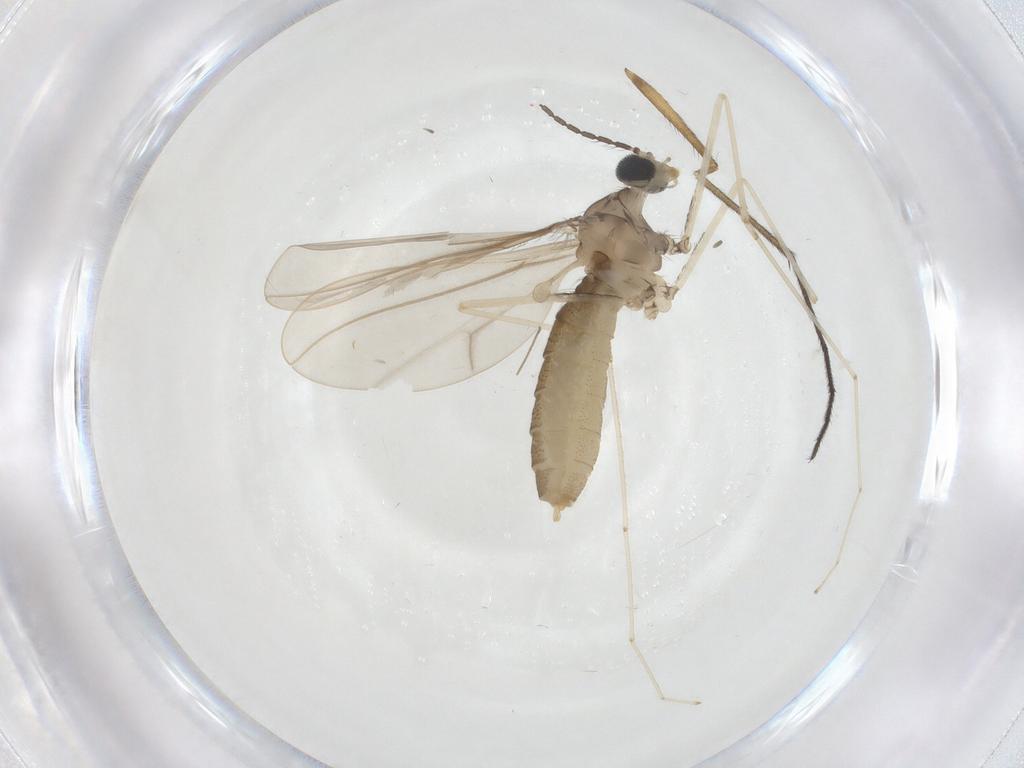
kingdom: Animalia
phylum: Arthropoda
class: Insecta
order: Diptera
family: Cecidomyiidae
